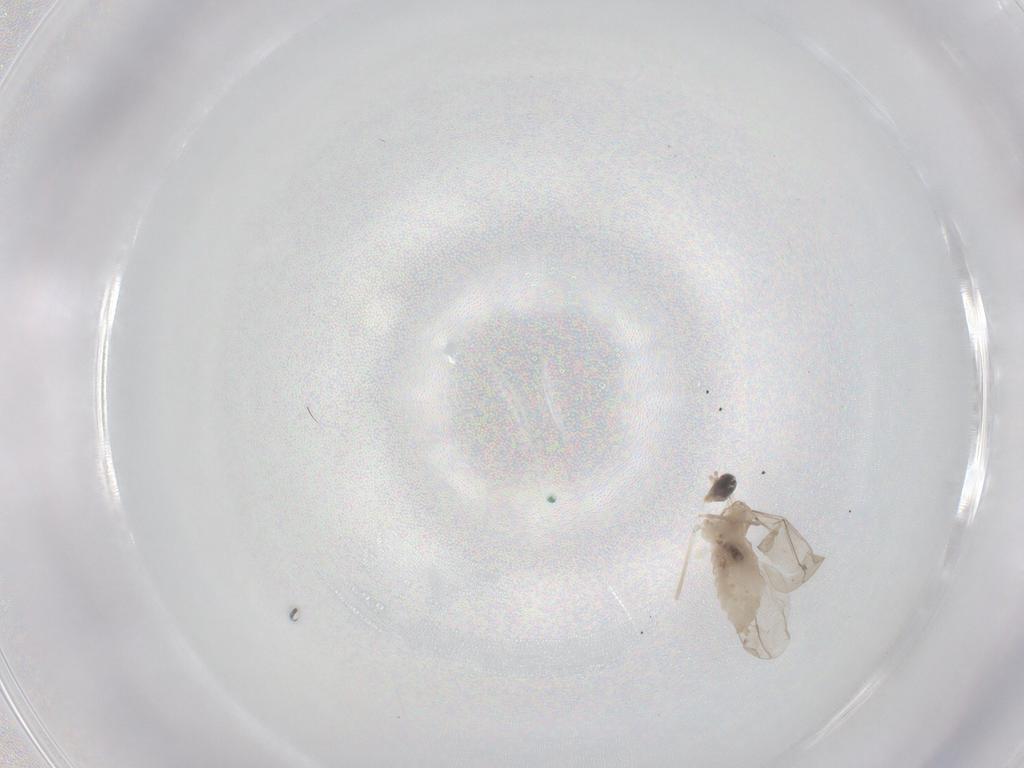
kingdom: Animalia
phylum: Arthropoda
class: Insecta
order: Diptera
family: Cecidomyiidae
